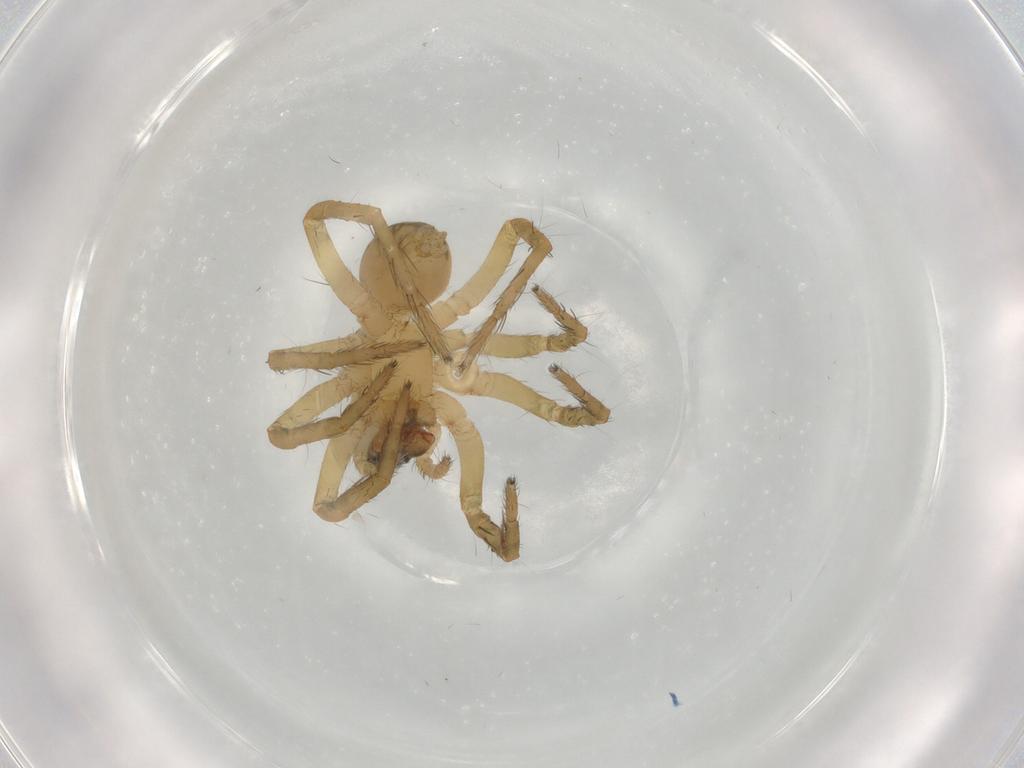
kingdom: Animalia
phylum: Arthropoda
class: Arachnida
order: Araneae
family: Lycosidae
